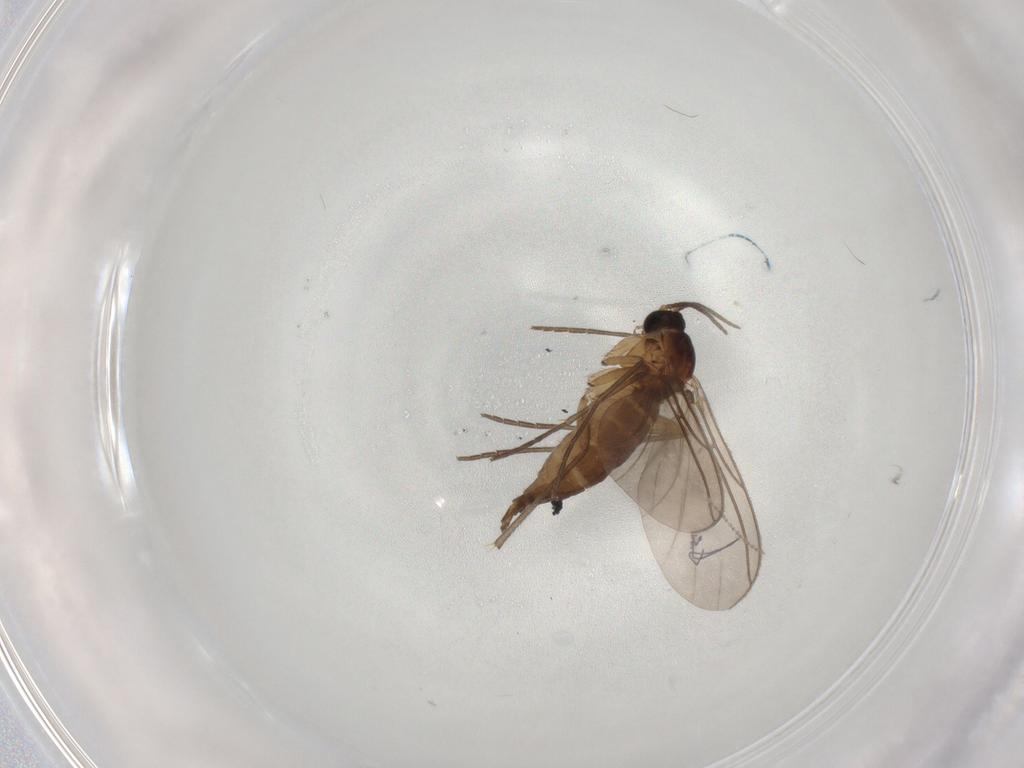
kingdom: Animalia
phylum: Arthropoda
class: Insecta
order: Diptera
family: Sciaridae
